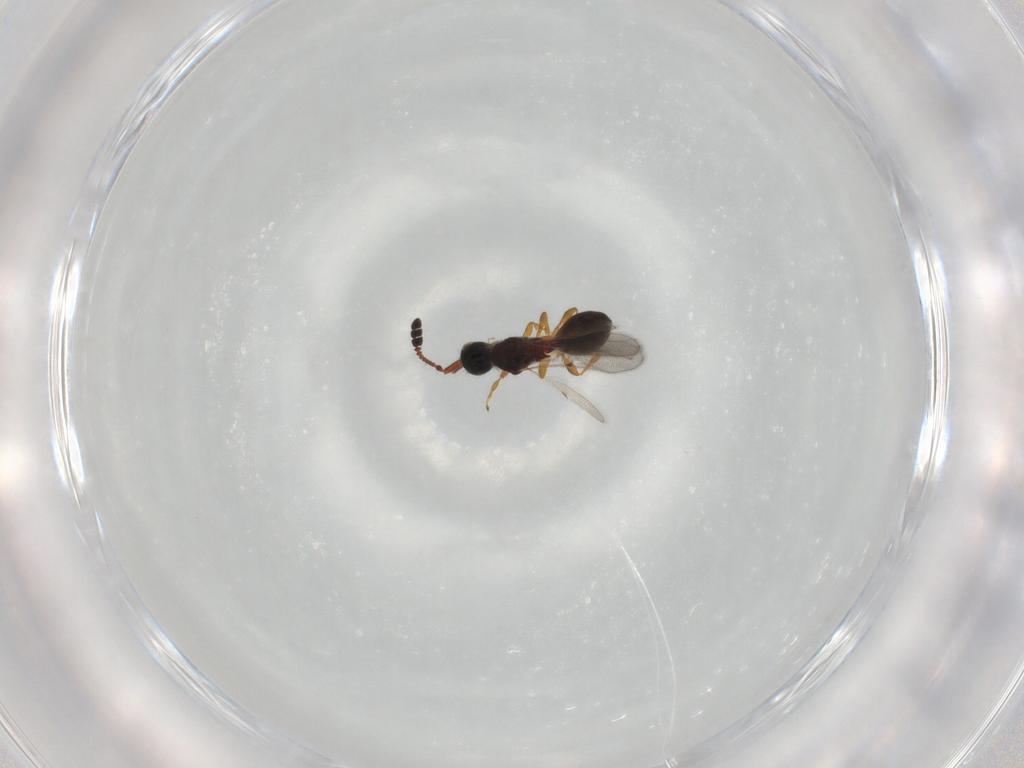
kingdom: Animalia
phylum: Arthropoda
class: Insecta
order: Hymenoptera
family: Diapriidae
